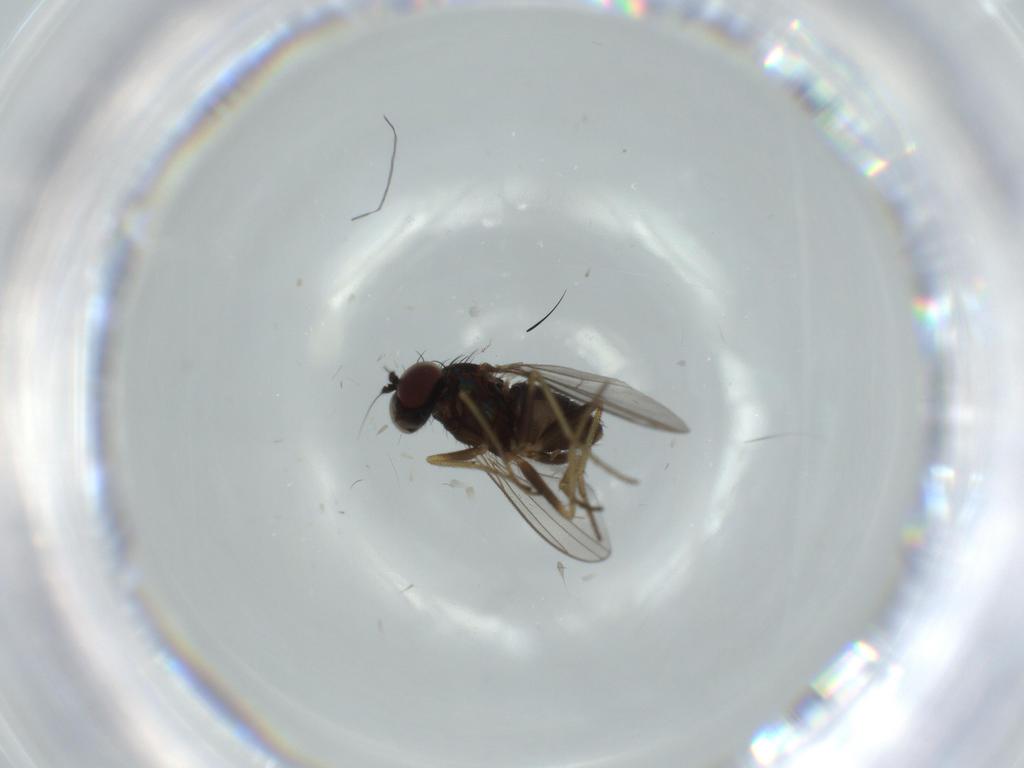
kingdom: Animalia
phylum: Arthropoda
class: Insecta
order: Diptera
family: Dolichopodidae
